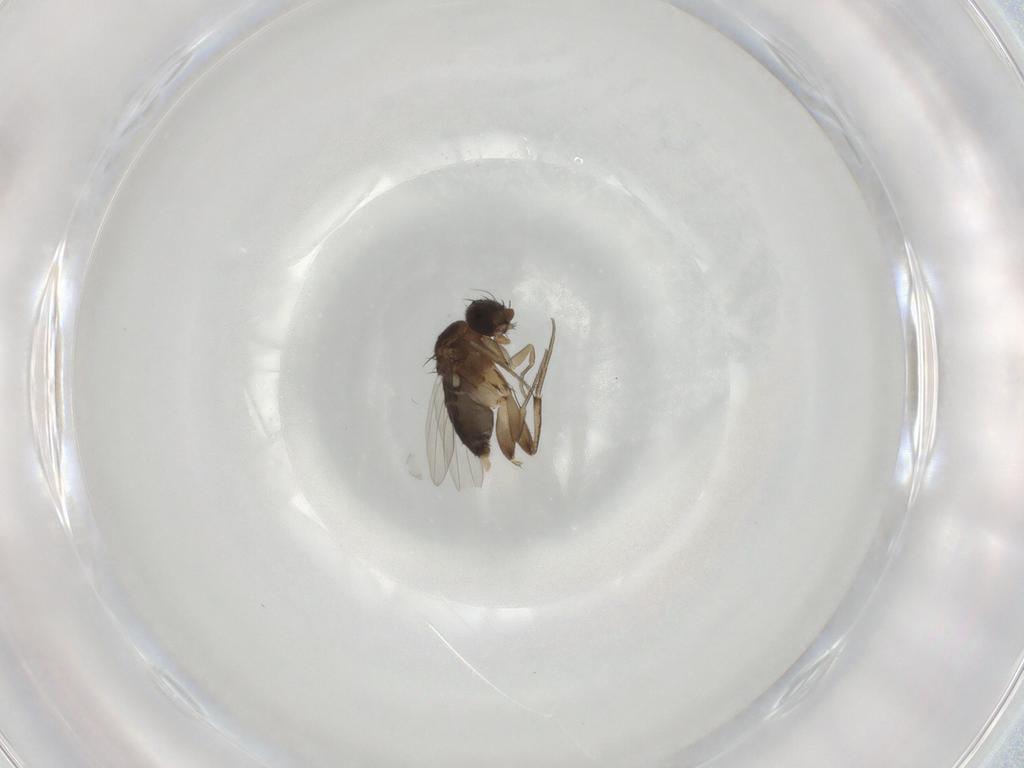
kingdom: Animalia
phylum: Arthropoda
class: Insecta
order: Diptera
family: Phoridae
